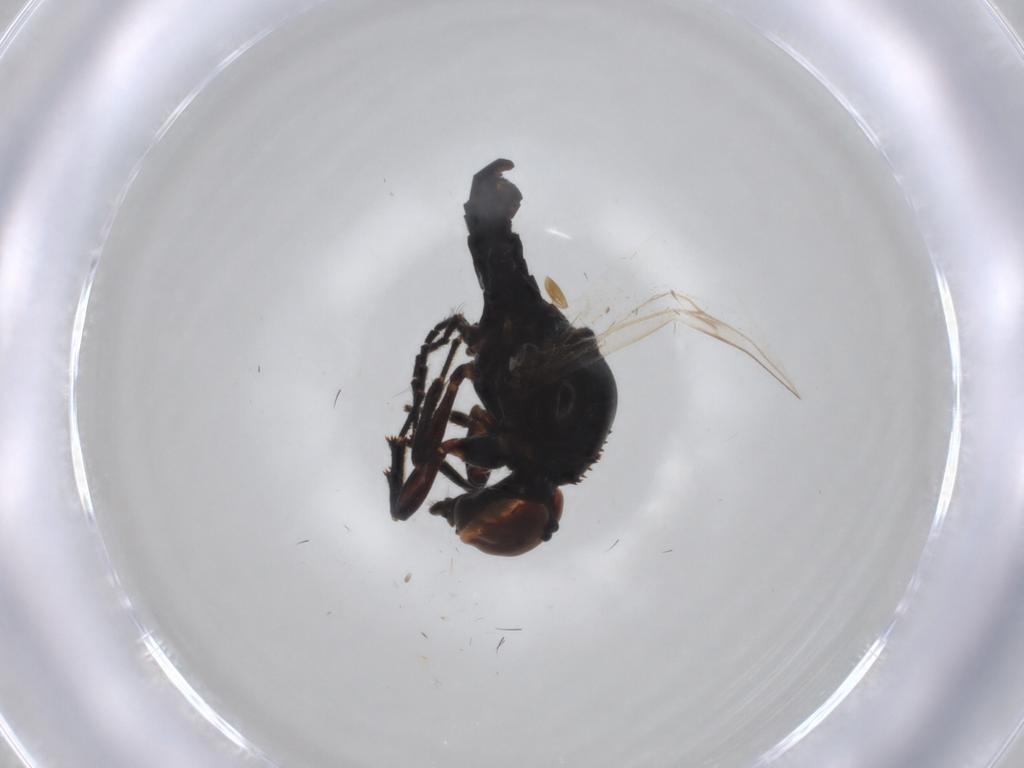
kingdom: Animalia
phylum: Arthropoda
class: Insecta
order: Diptera
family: Bibionidae
